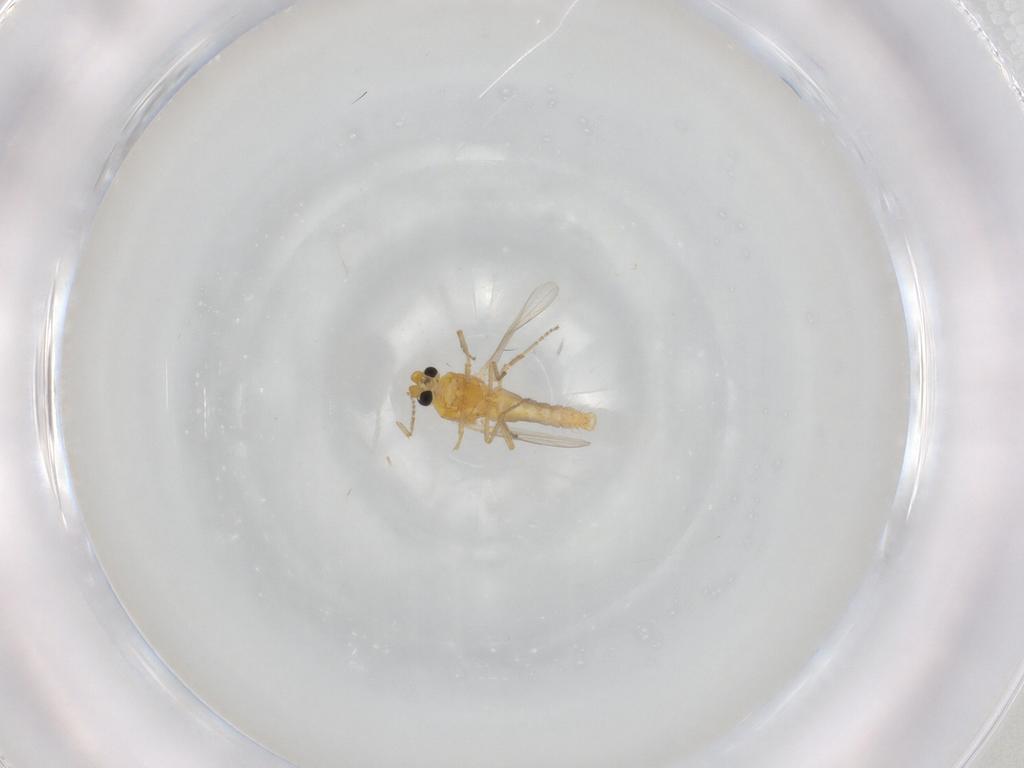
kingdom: Animalia
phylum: Arthropoda
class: Insecta
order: Diptera
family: Ceratopogonidae
